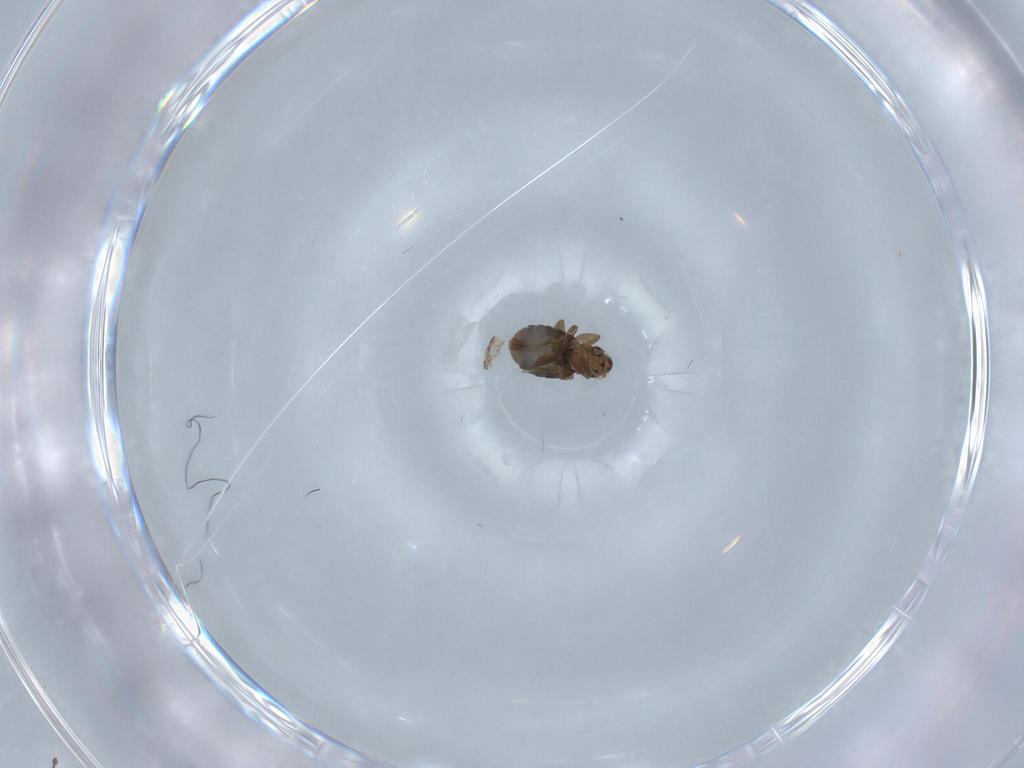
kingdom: Animalia
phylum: Arthropoda
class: Insecta
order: Diptera
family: Chironomidae
